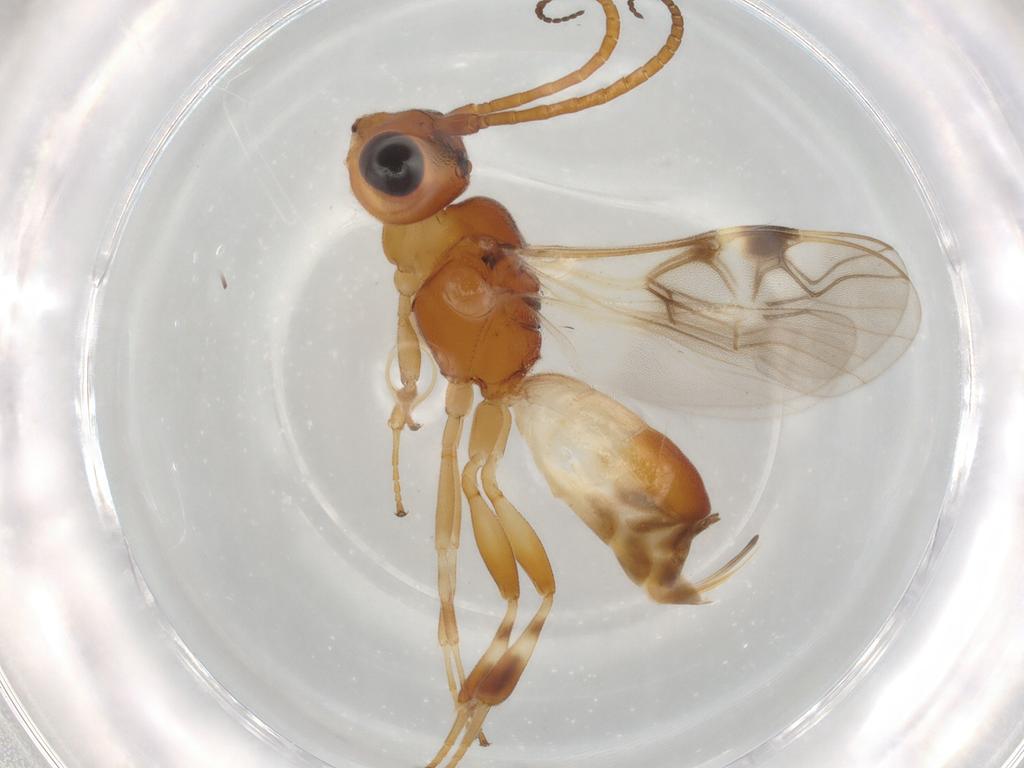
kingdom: Animalia
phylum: Arthropoda
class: Insecta
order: Hymenoptera
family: Braconidae
